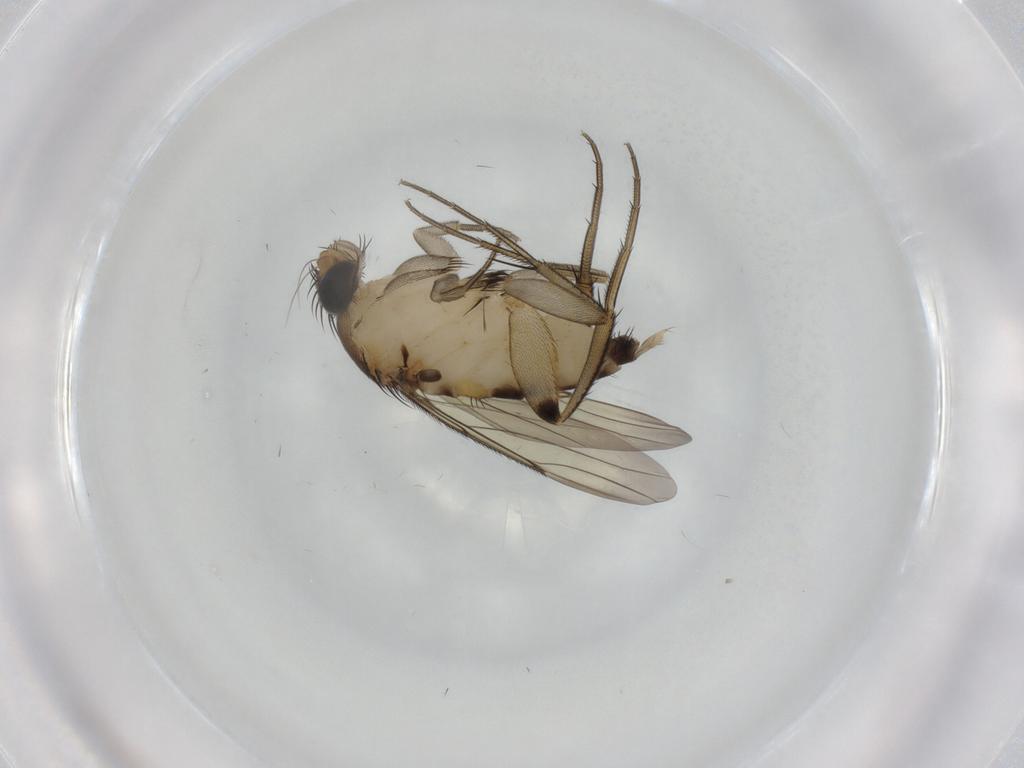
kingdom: Animalia
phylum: Arthropoda
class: Insecta
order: Diptera
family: Phoridae
